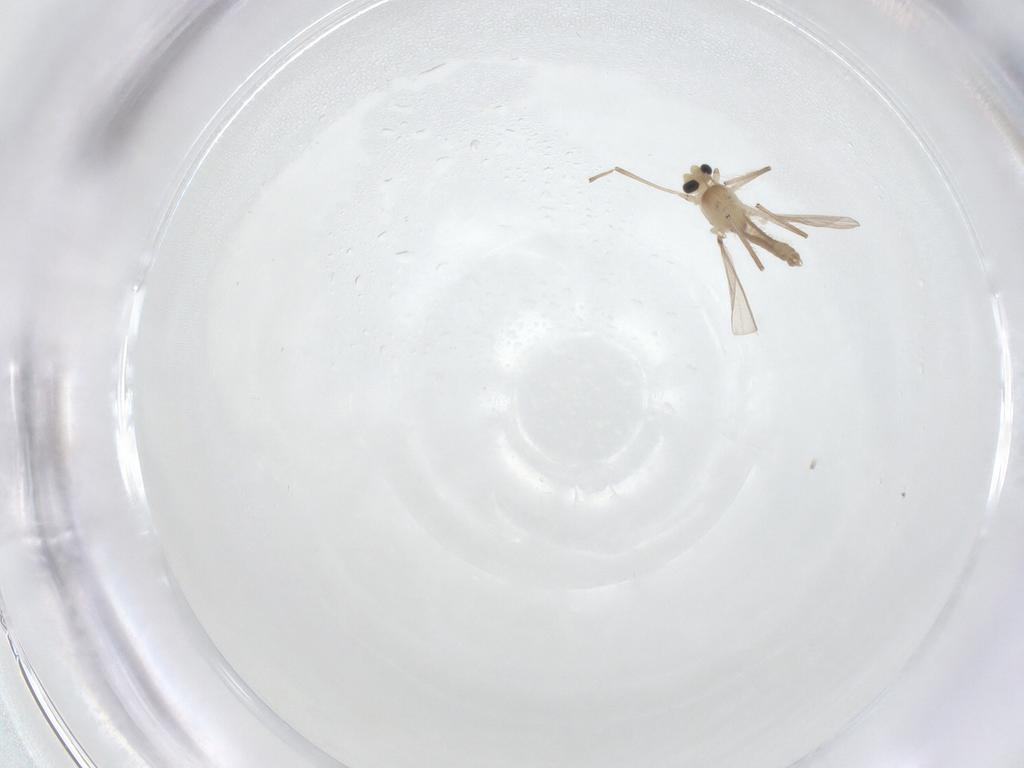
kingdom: Animalia
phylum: Arthropoda
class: Insecta
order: Diptera
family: Chironomidae
